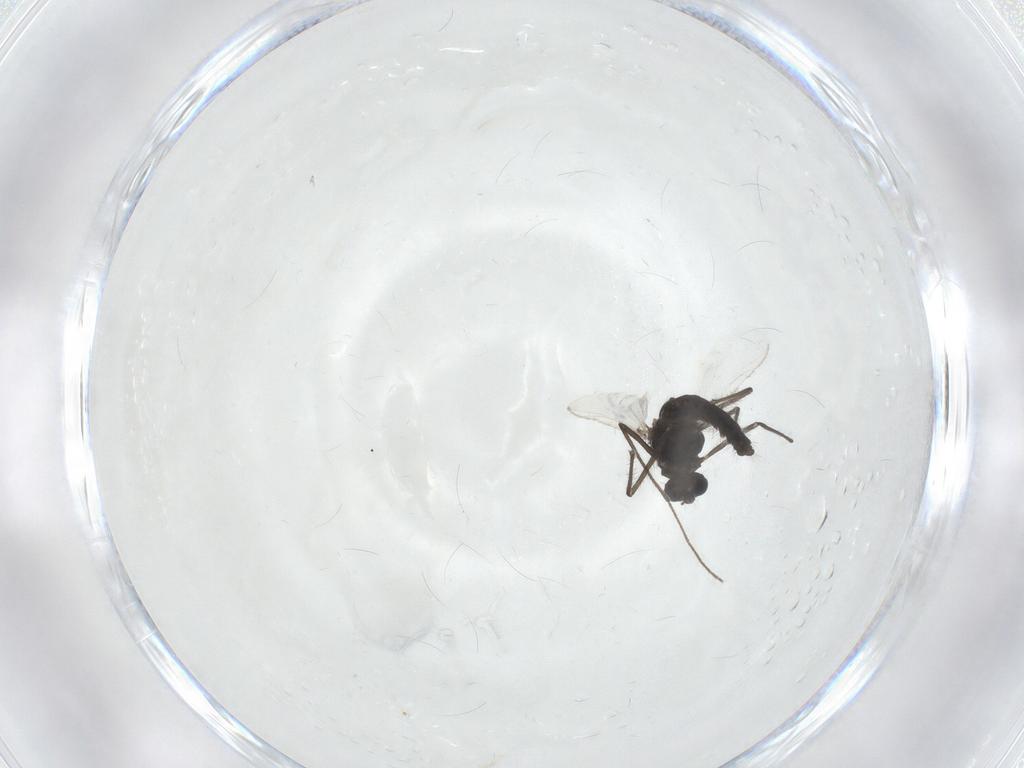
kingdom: Animalia
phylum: Arthropoda
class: Insecta
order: Diptera
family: Chironomidae
